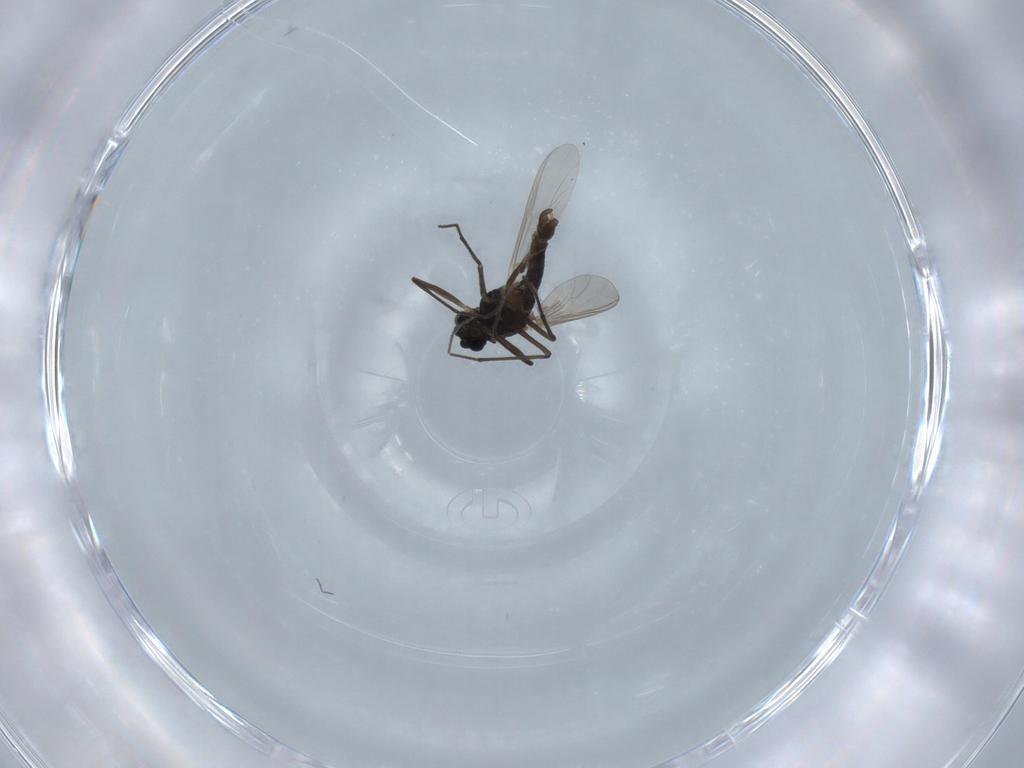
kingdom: Animalia
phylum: Arthropoda
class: Insecta
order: Diptera
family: Chironomidae
